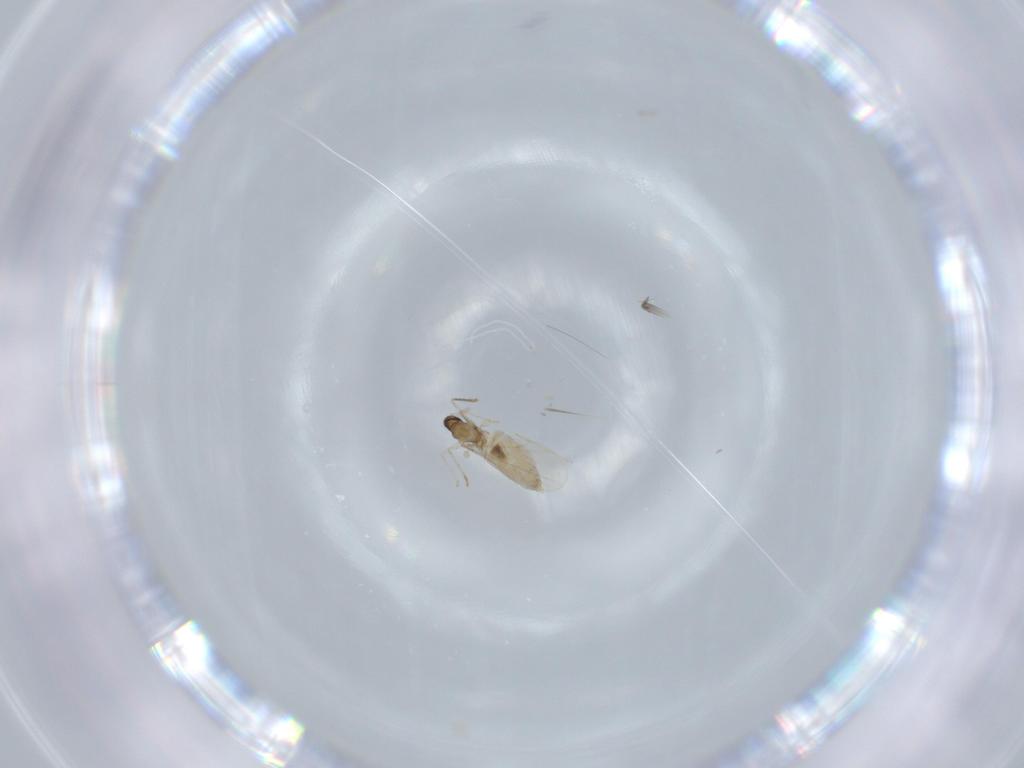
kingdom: Animalia
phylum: Arthropoda
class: Insecta
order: Diptera
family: Cecidomyiidae
